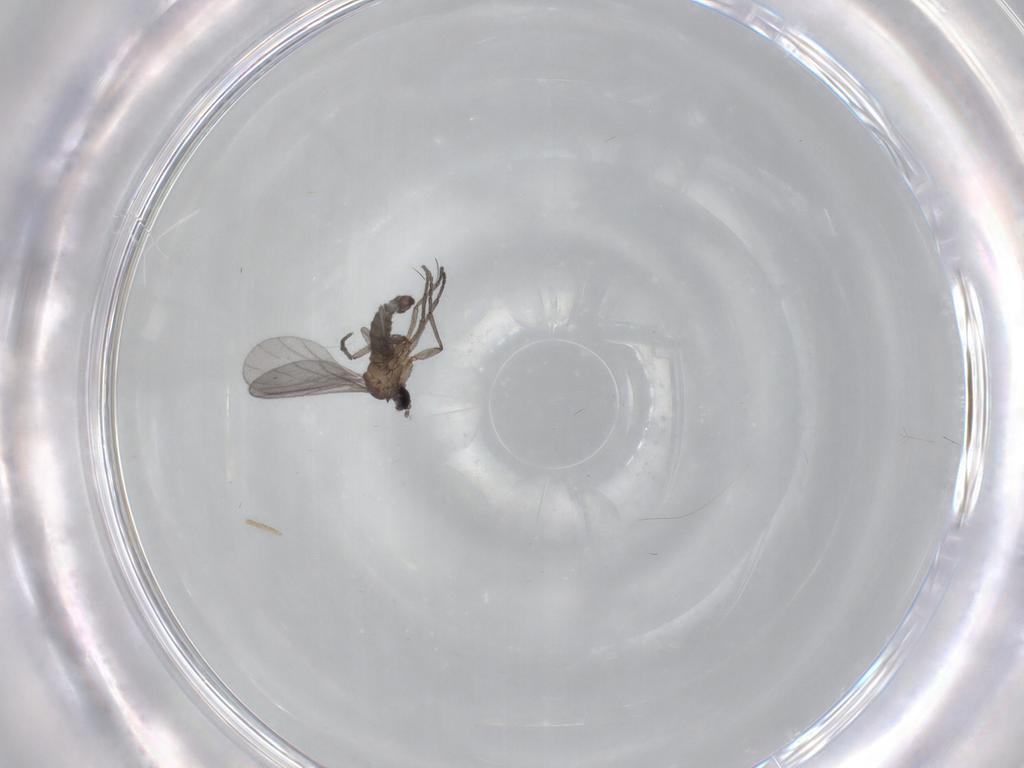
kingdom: Animalia
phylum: Arthropoda
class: Insecta
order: Diptera
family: Sciaridae
